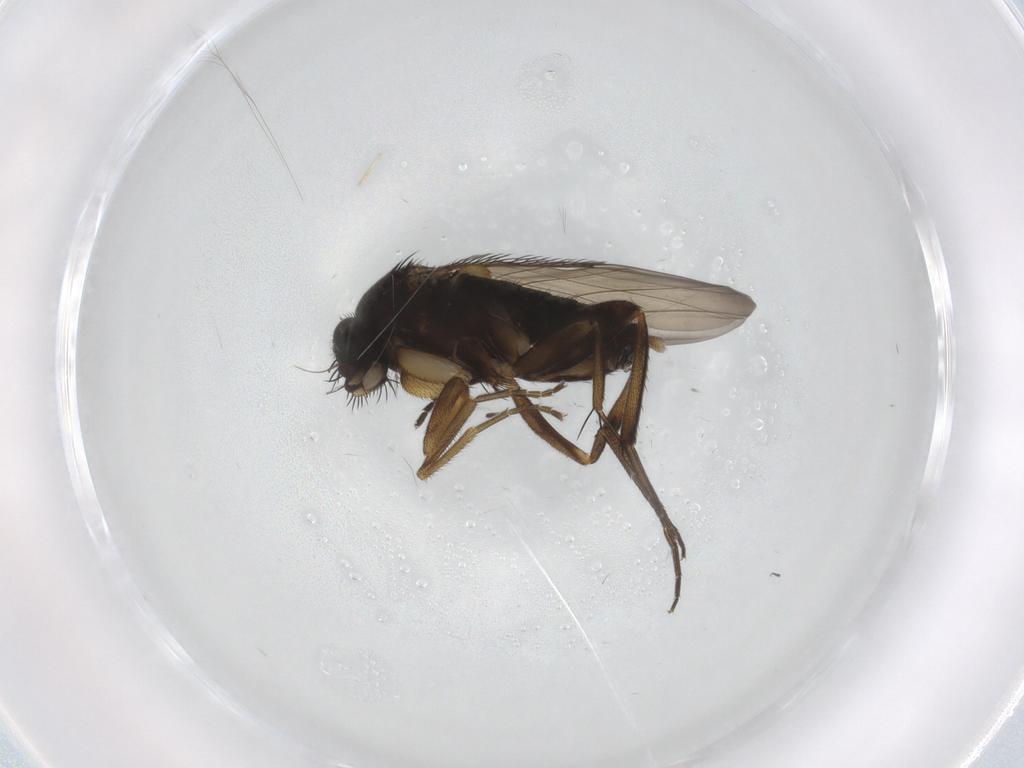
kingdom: Animalia
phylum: Arthropoda
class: Insecta
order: Diptera
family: Phoridae
